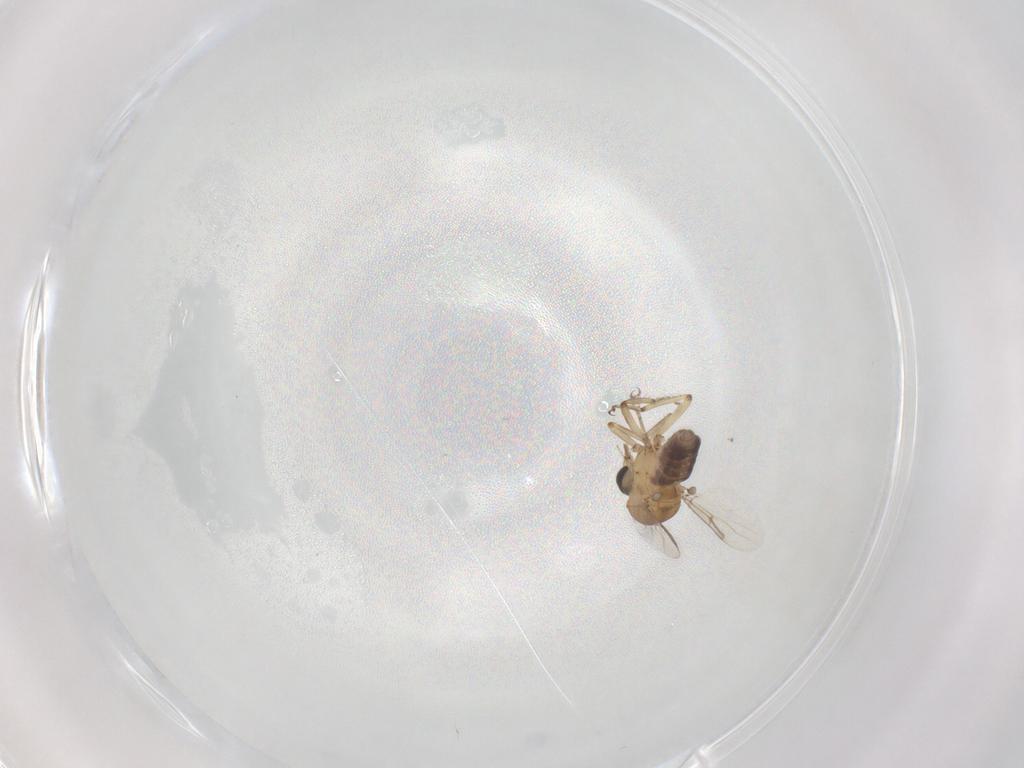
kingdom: Animalia
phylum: Arthropoda
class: Insecta
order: Diptera
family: Ceratopogonidae
